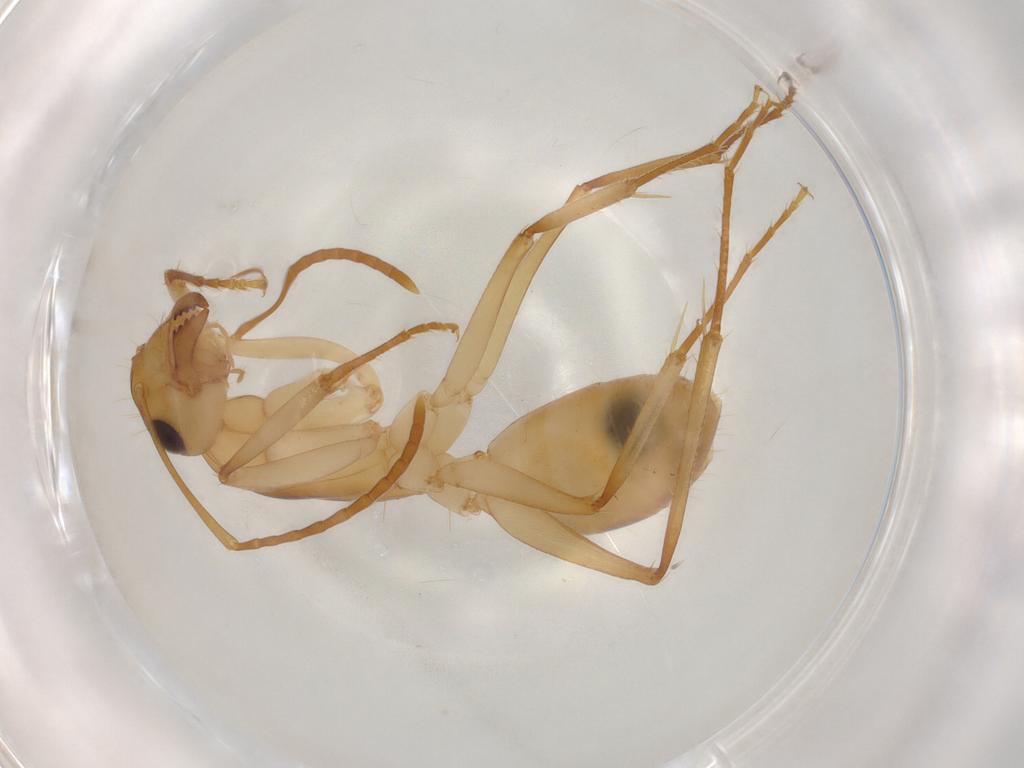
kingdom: Animalia
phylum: Arthropoda
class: Insecta
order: Hymenoptera
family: Formicidae
